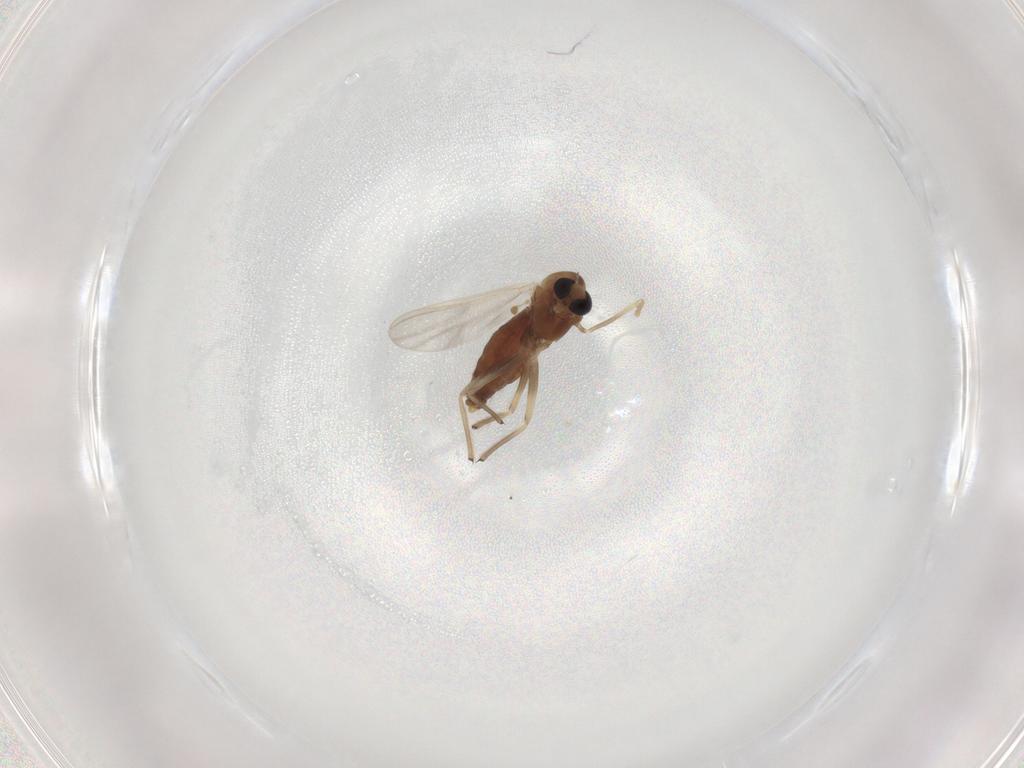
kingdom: Animalia
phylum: Arthropoda
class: Insecta
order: Diptera
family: Chironomidae
